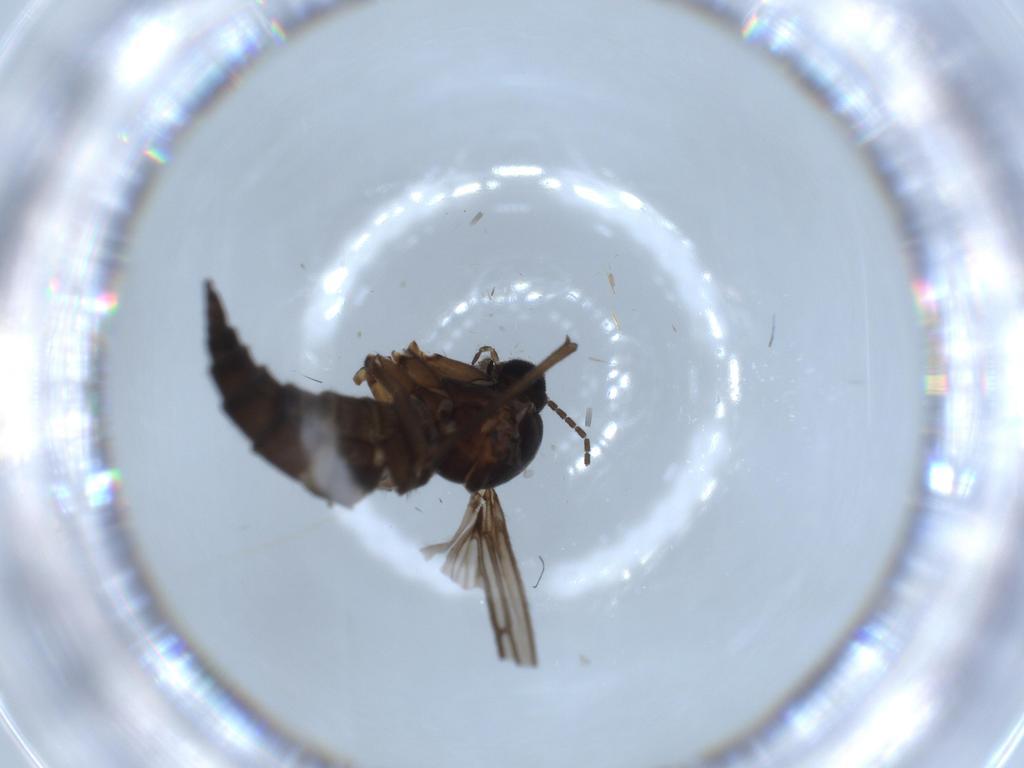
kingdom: Animalia
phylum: Arthropoda
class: Insecta
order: Diptera
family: Sciaridae
